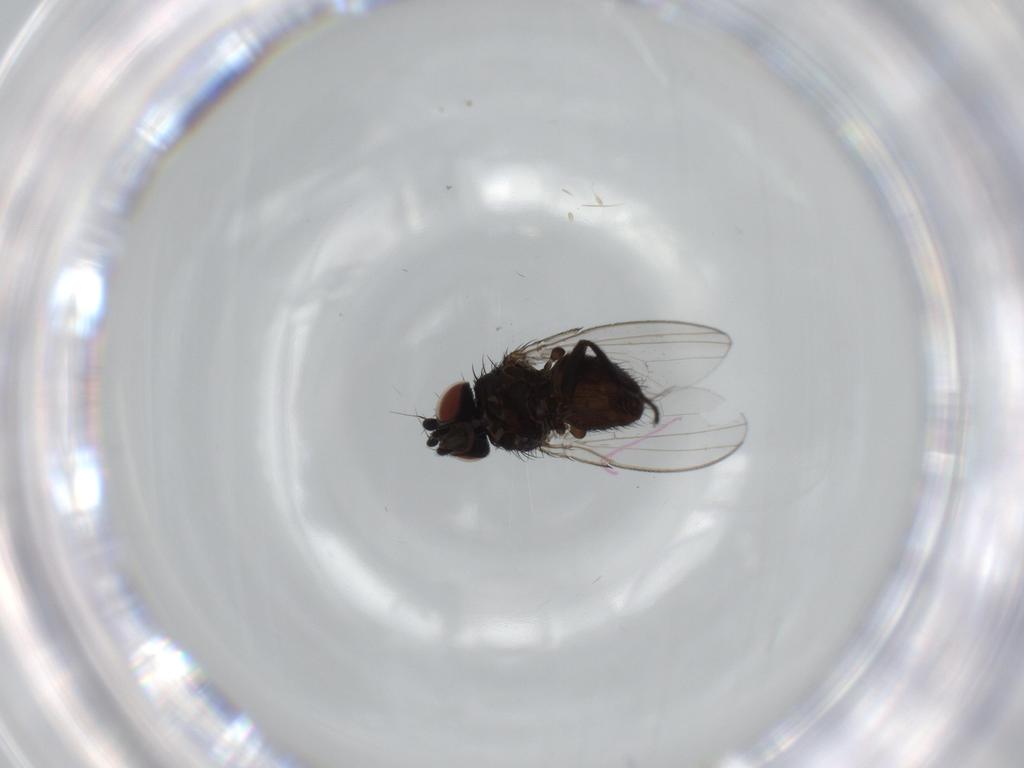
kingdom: Animalia
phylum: Arthropoda
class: Insecta
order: Diptera
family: Milichiidae
